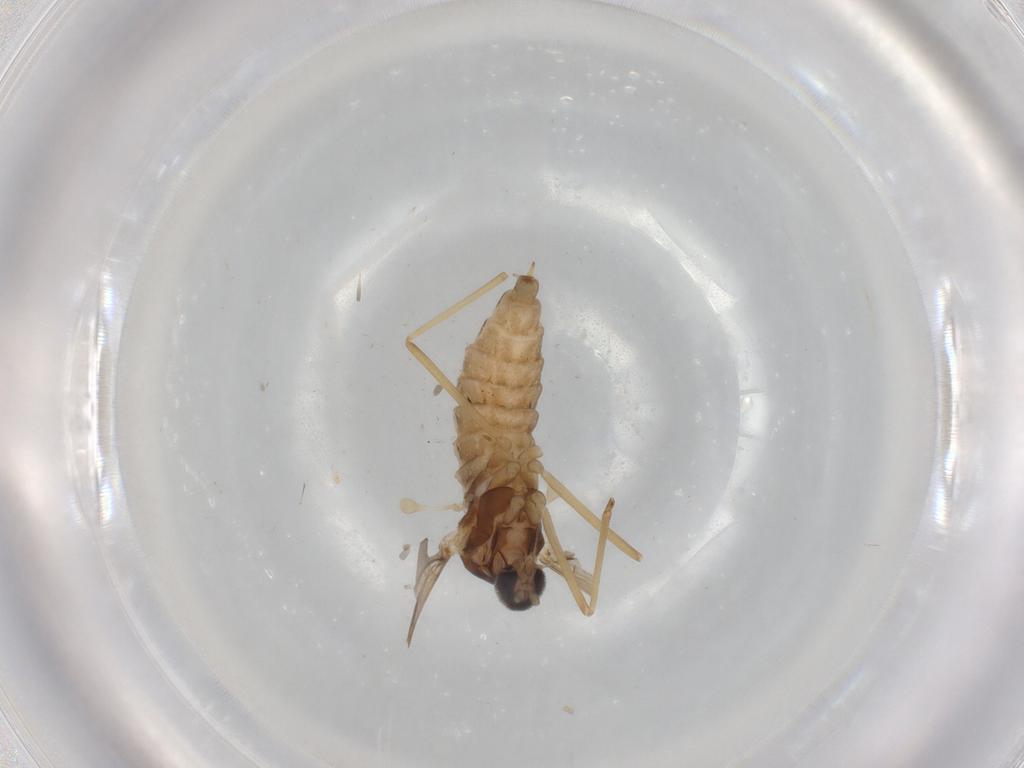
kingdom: Animalia
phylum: Arthropoda
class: Insecta
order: Diptera
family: Cecidomyiidae
